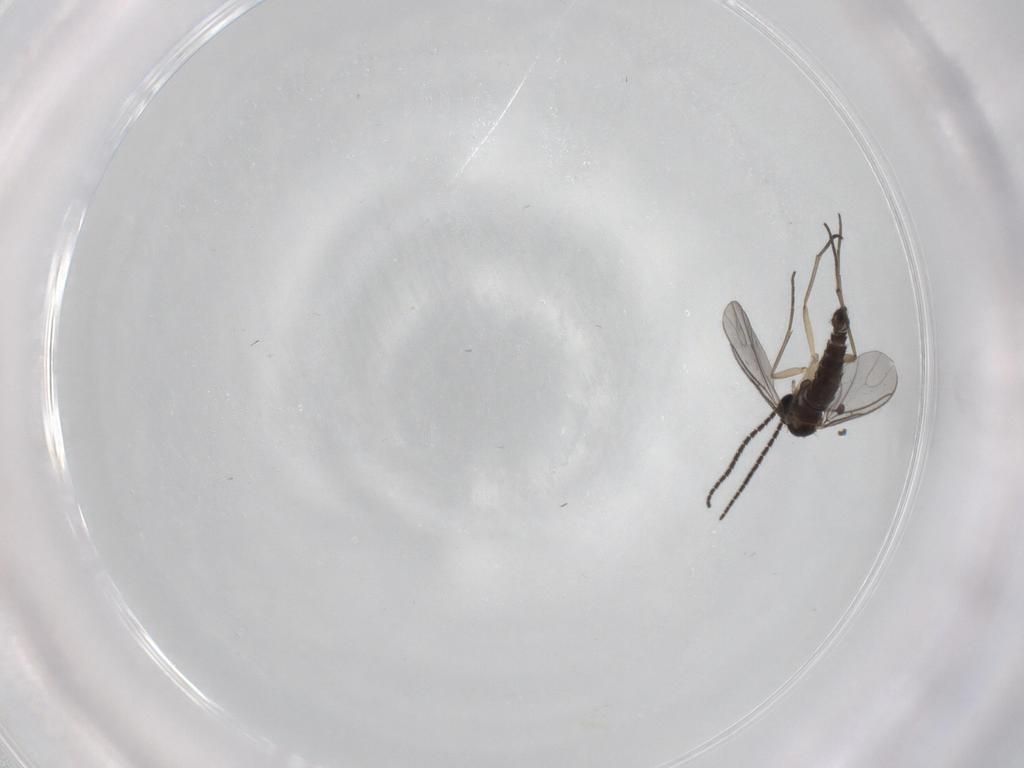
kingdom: Animalia
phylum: Arthropoda
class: Insecta
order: Diptera
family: Sciaridae
